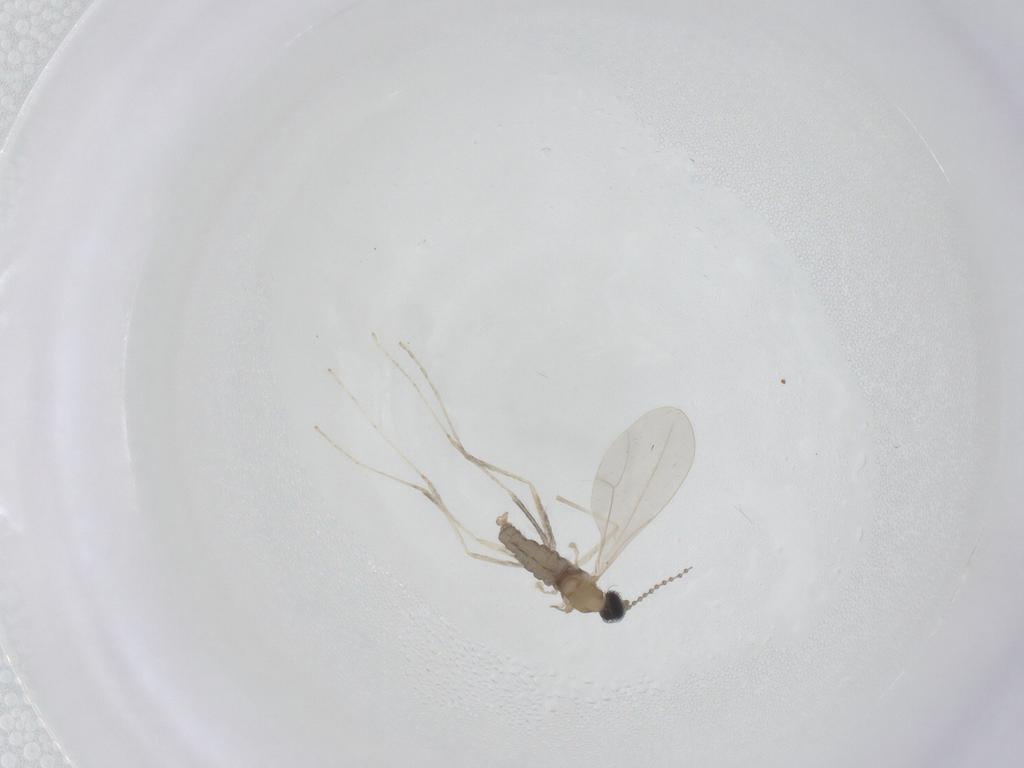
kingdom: Animalia
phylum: Arthropoda
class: Insecta
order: Diptera
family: Cecidomyiidae
